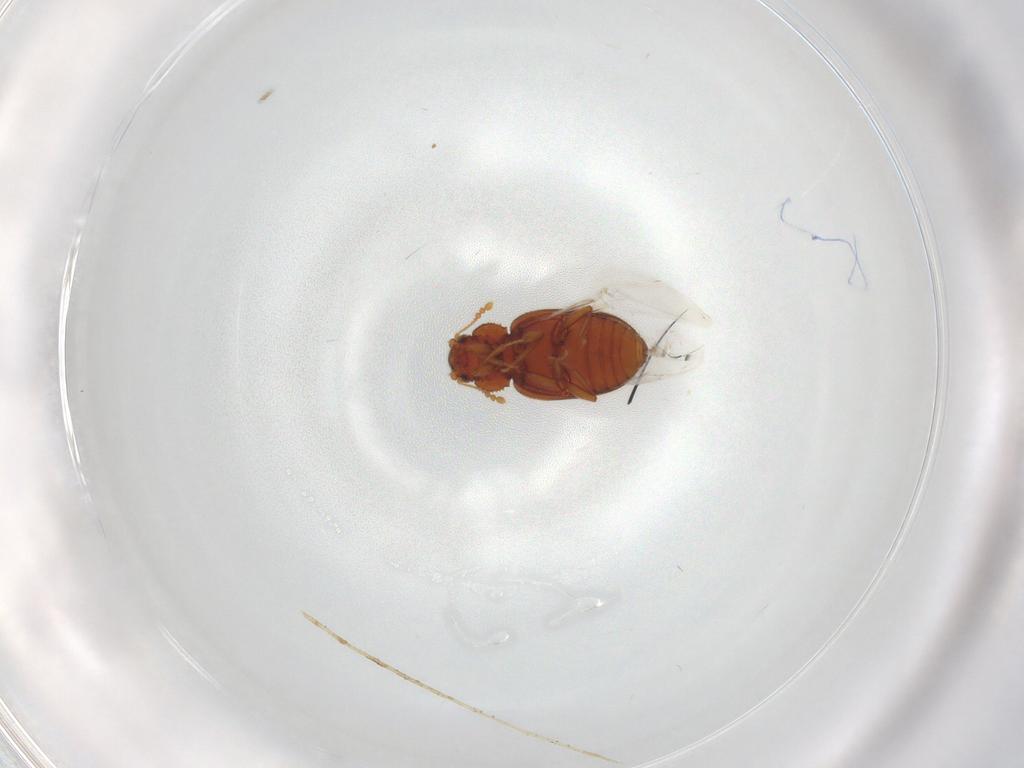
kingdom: Animalia
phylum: Arthropoda
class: Insecta
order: Coleoptera
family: Latridiidae
